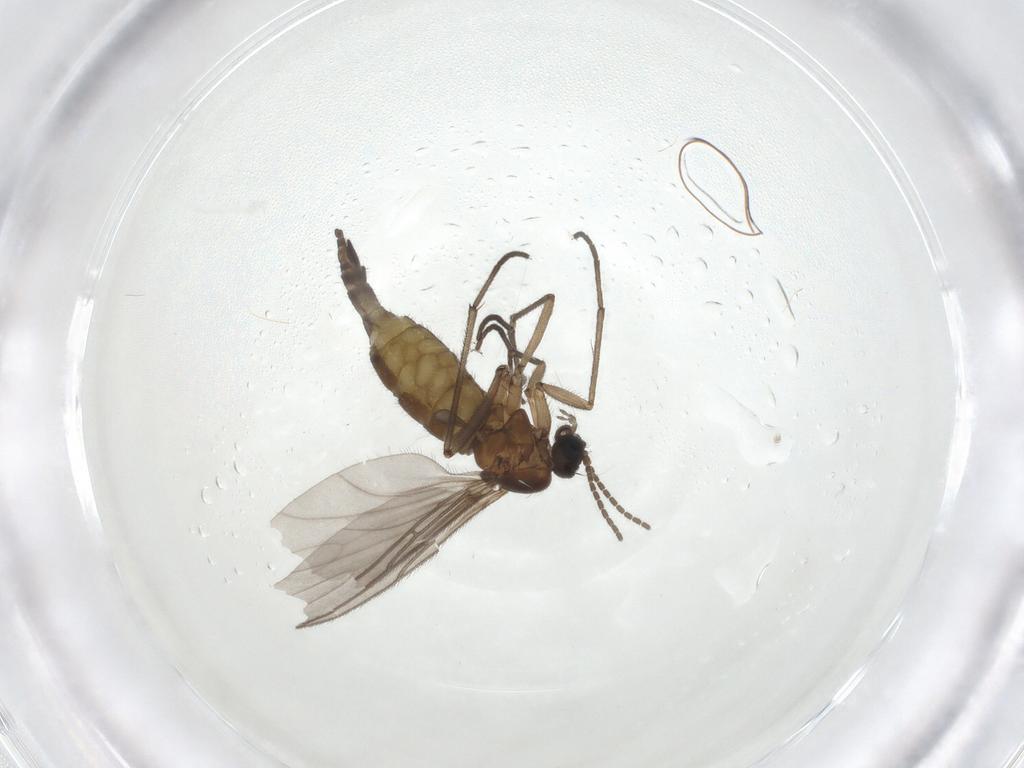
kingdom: Animalia
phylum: Arthropoda
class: Insecta
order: Diptera
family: Sciaridae
